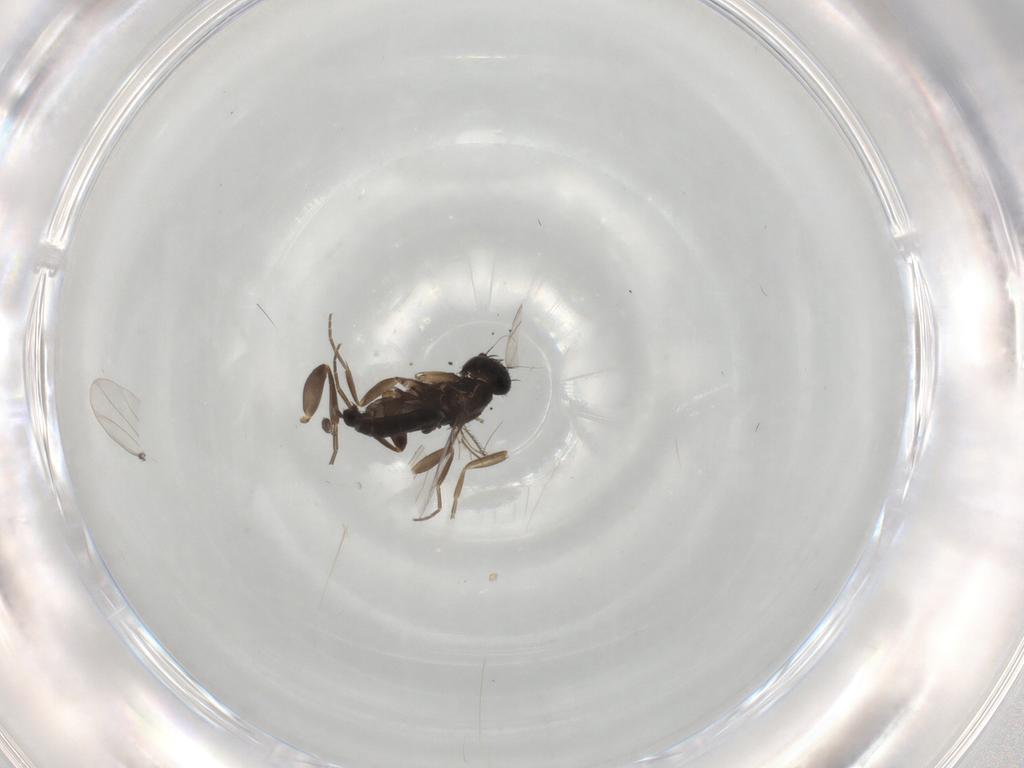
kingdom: Animalia
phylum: Arthropoda
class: Insecta
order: Diptera
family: Phoridae
